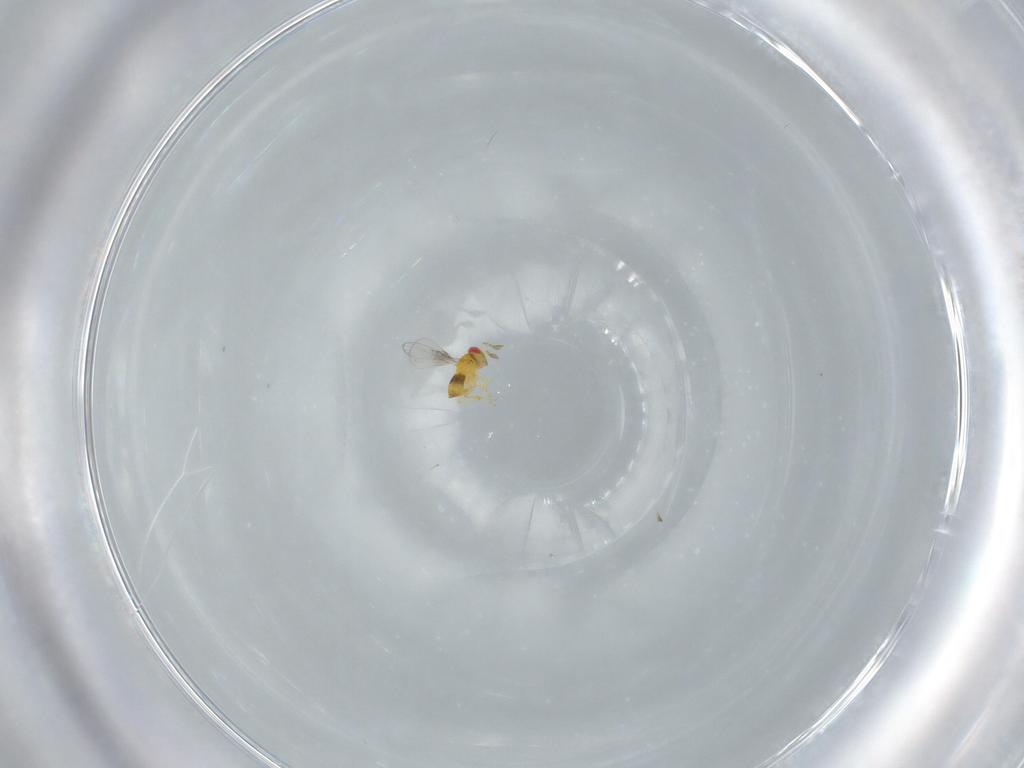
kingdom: Animalia
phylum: Arthropoda
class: Insecta
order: Hymenoptera
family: Trichogrammatidae
